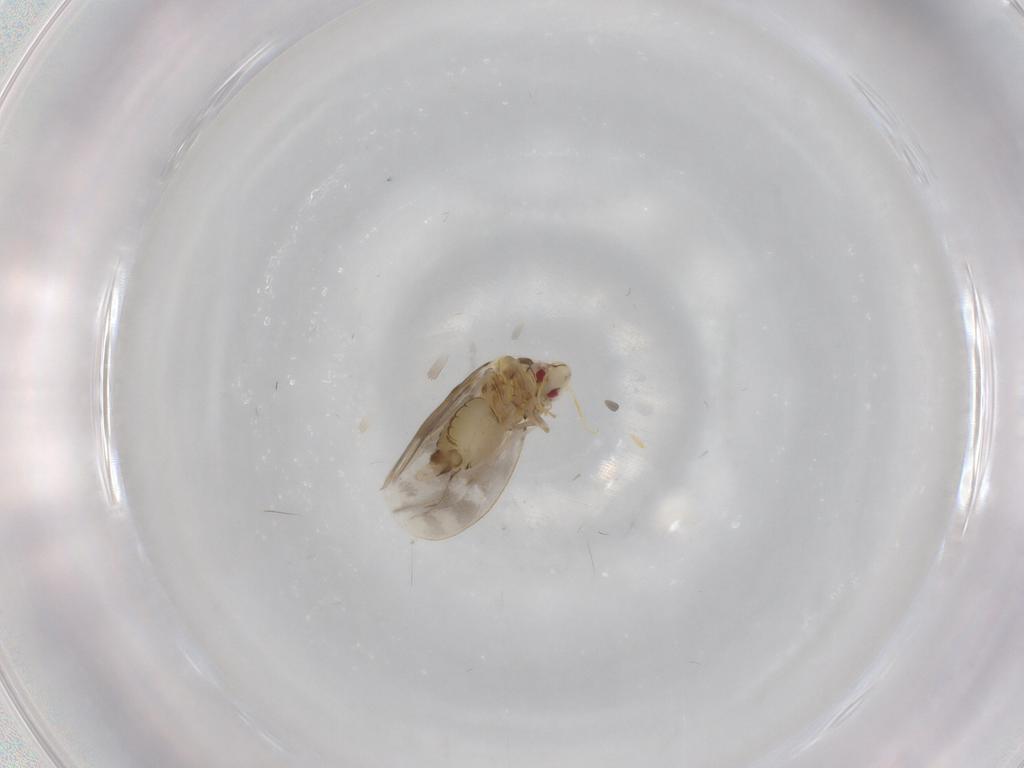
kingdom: Animalia
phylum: Arthropoda
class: Insecta
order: Hemiptera
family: Aleyrodidae
